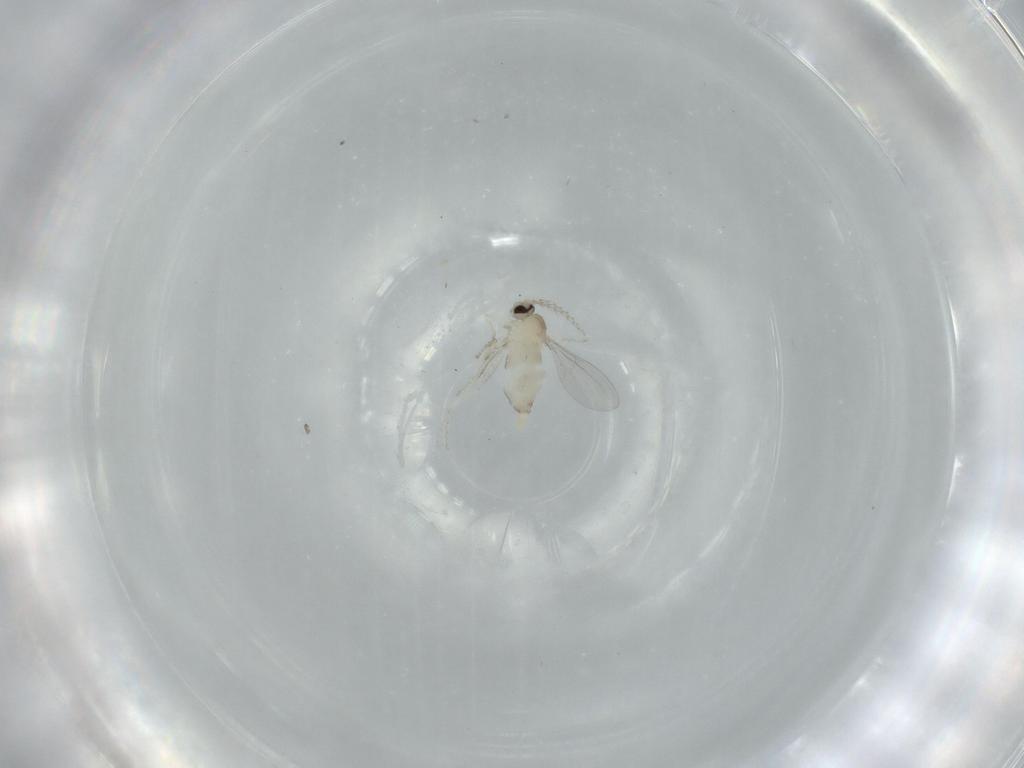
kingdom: Animalia
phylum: Arthropoda
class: Insecta
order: Diptera
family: Cecidomyiidae
